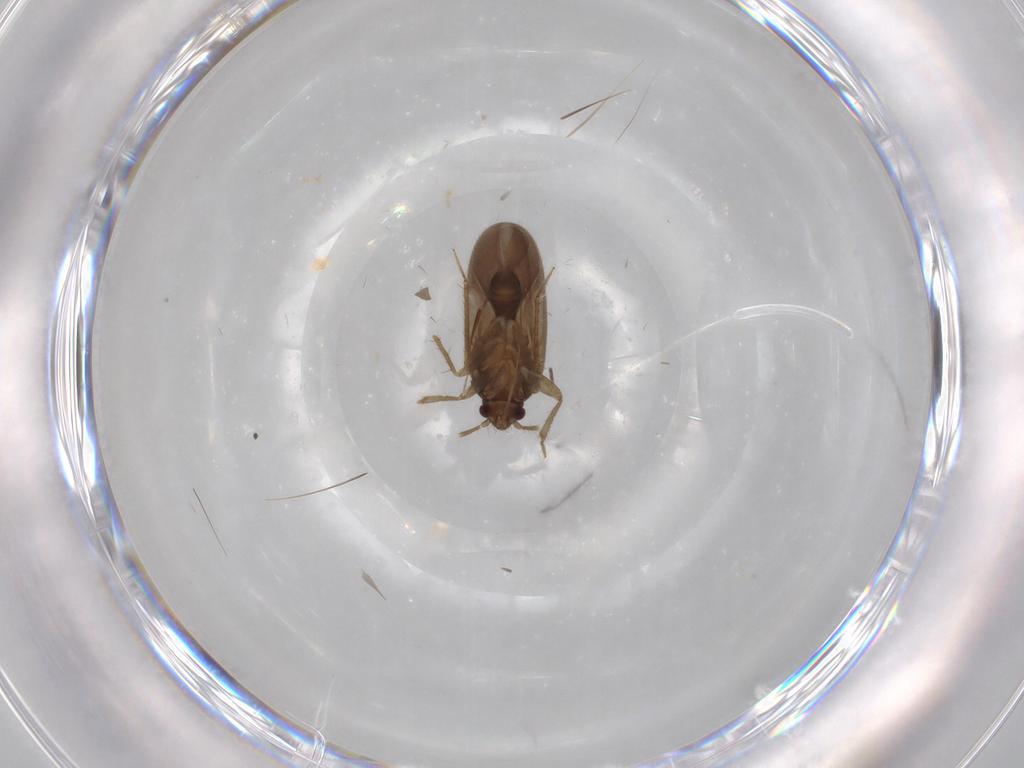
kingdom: Animalia
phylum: Arthropoda
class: Insecta
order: Hemiptera
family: Ceratocombidae
